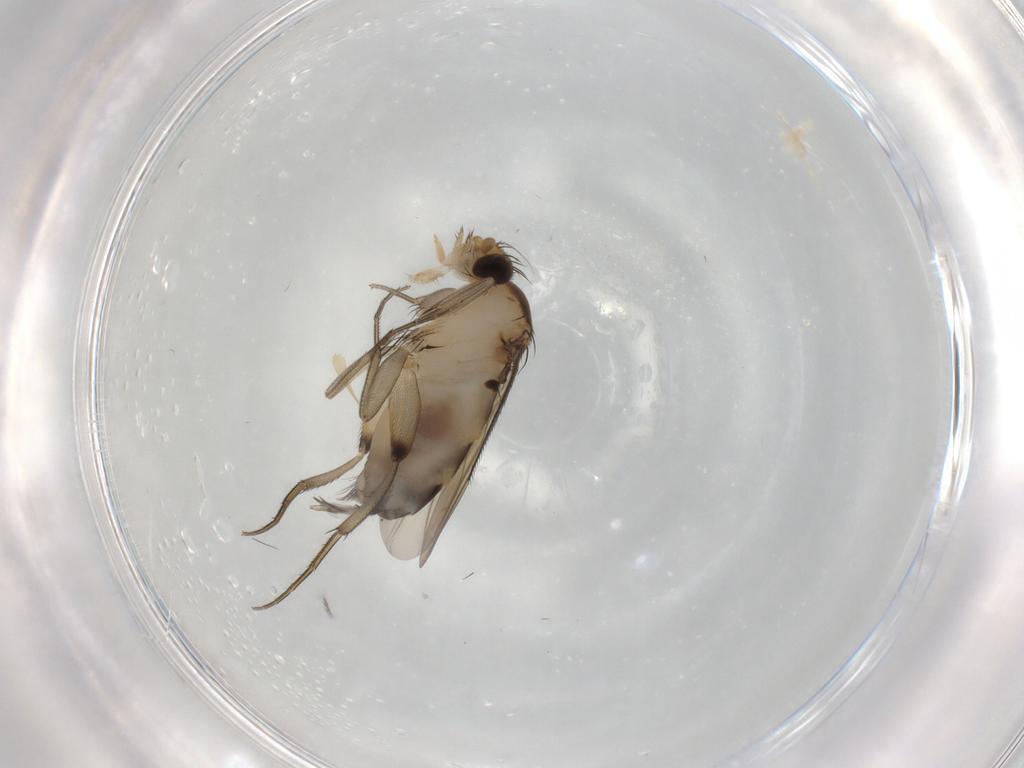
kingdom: Animalia
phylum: Arthropoda
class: Insecta
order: Diptera
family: Phoridae
